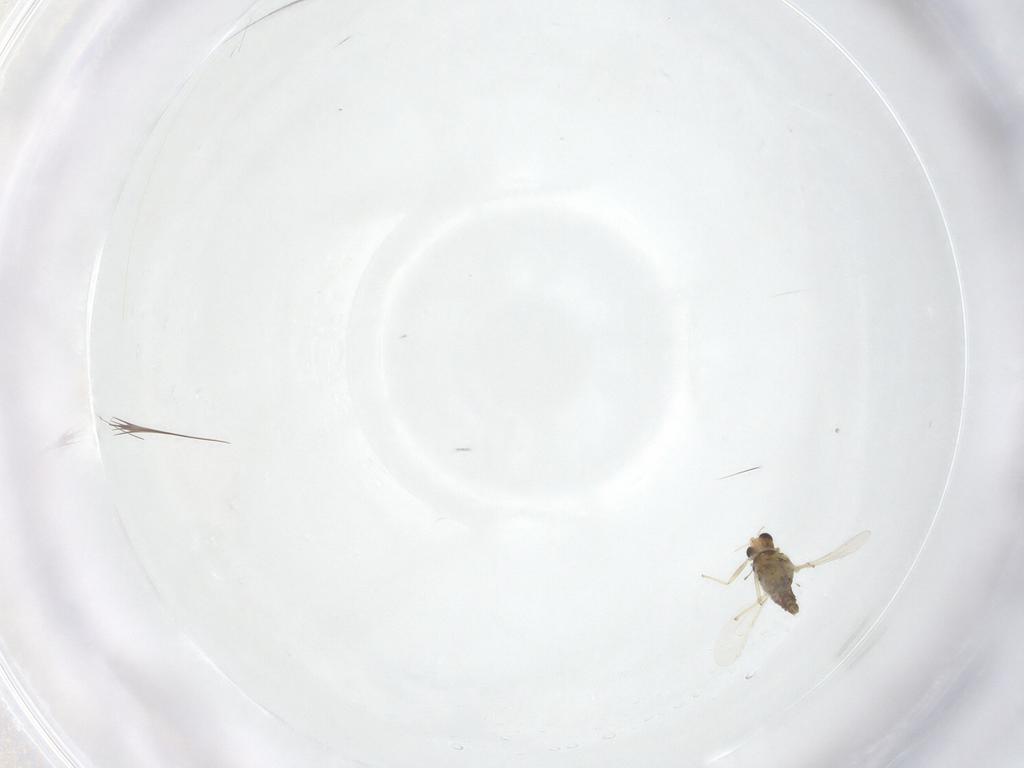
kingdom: Animalia
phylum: Arthropoda
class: Insecta
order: Diptera
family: Chironomidae
